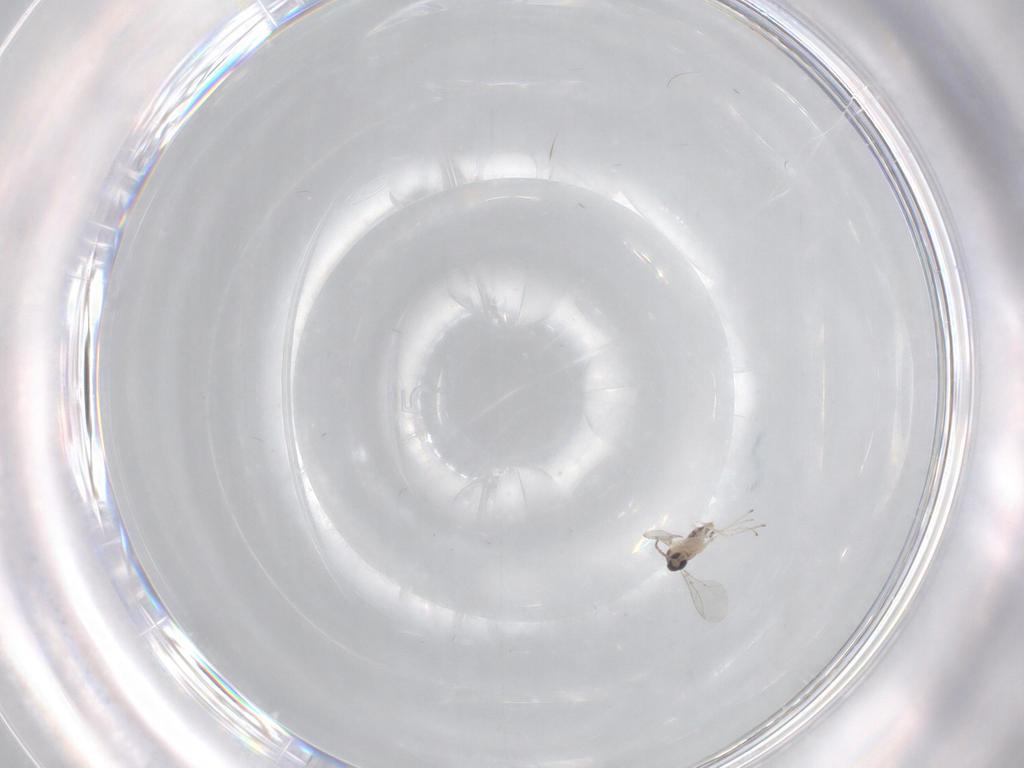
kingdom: Animalia
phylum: Arthropoda
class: Insecta
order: Diptera
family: Cecidomyiidae
